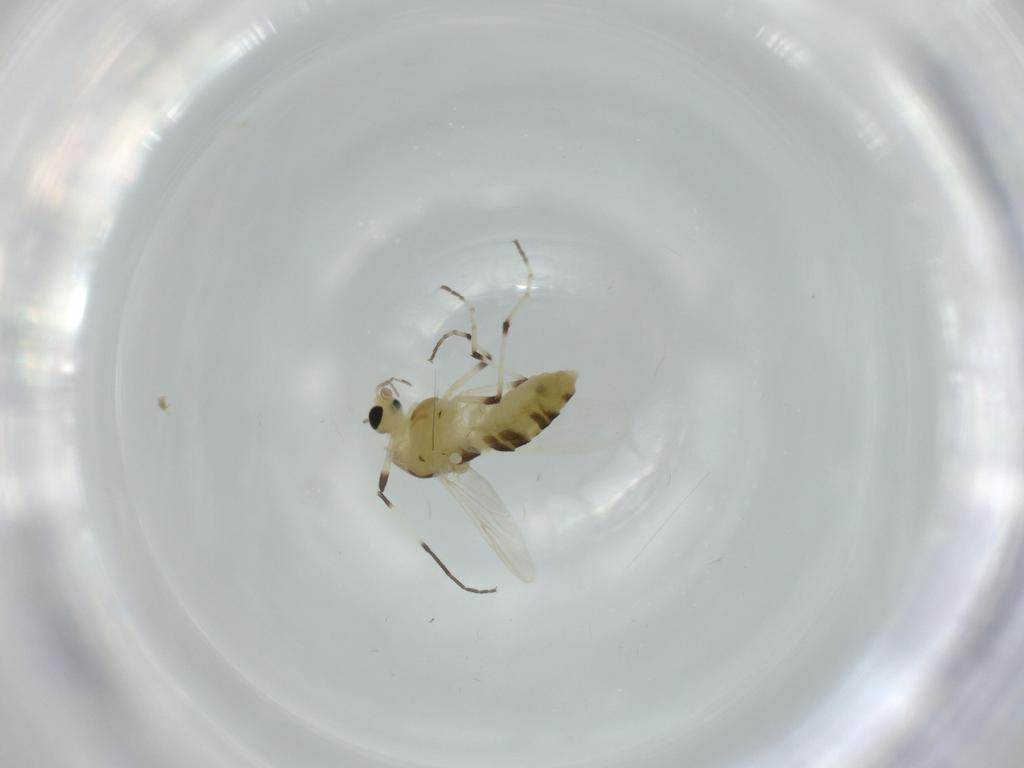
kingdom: Animalia
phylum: Arthropoda
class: Insecta
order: Diptera
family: Chironomidae
